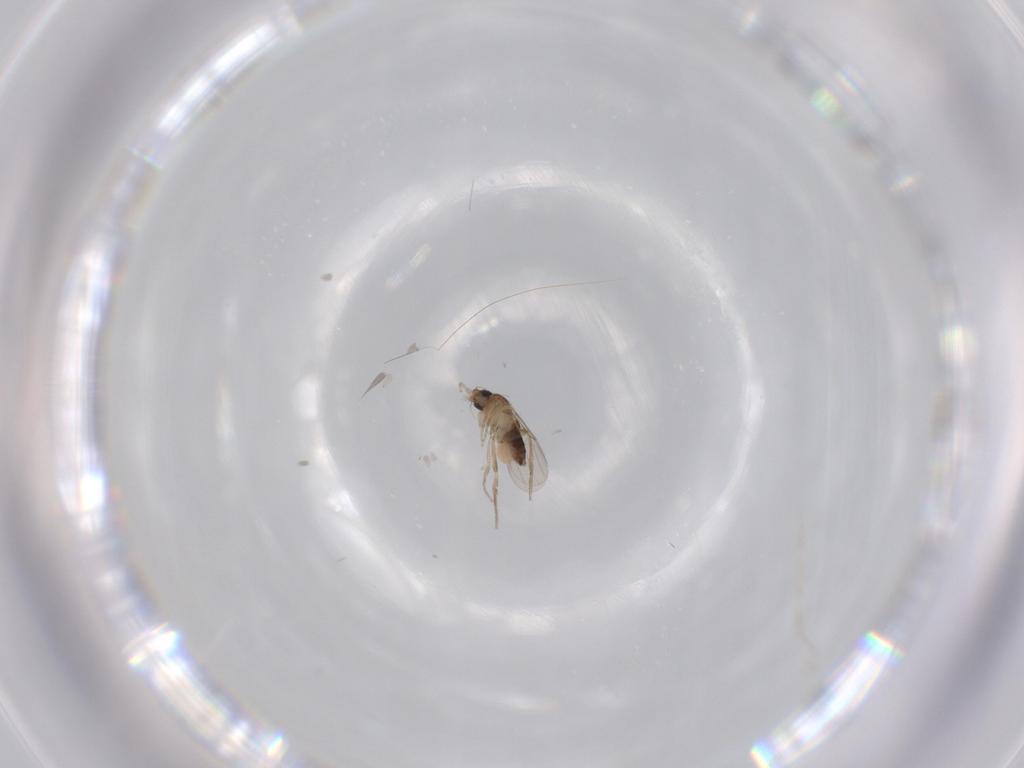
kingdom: Animalia
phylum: Arthropoda
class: Insecta
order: Diptera
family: Phoridae
